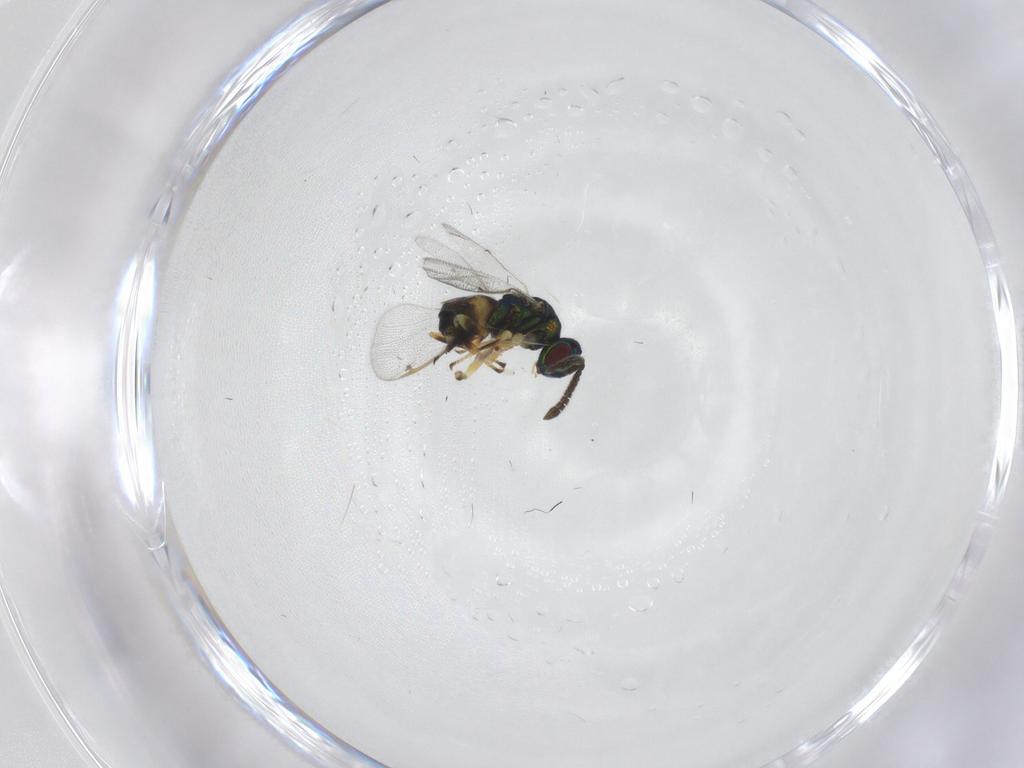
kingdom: Animalia
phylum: Arthropoda
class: Insecta
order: Hymenoptera
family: Torymidae
